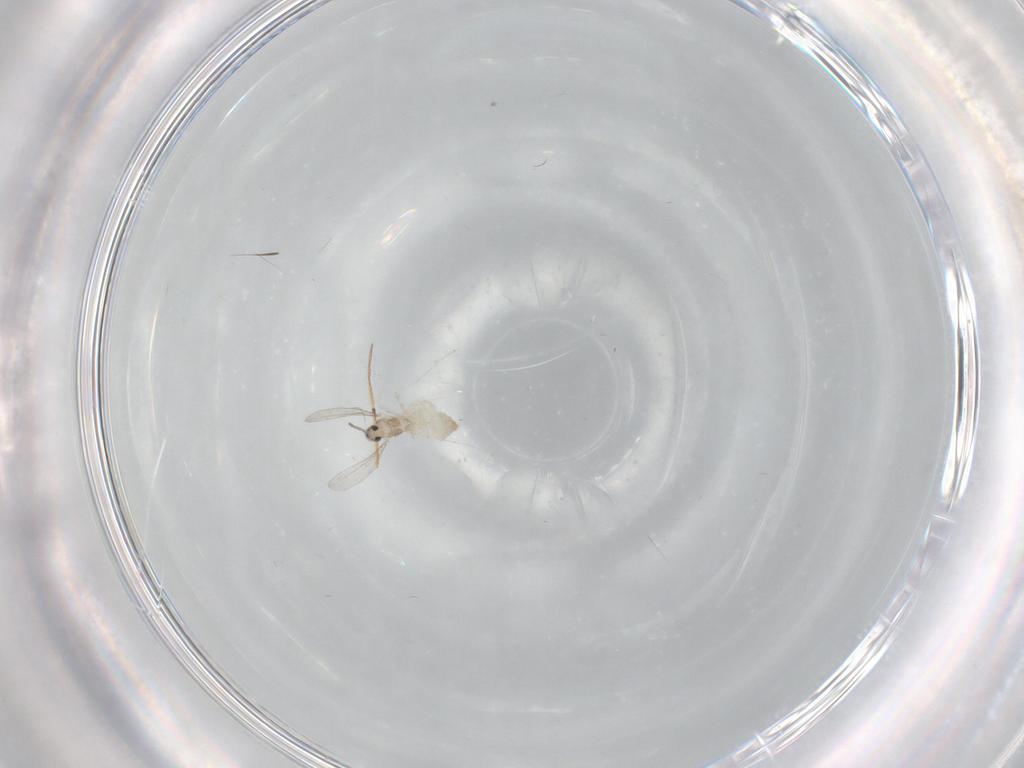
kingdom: Animalia
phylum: Arthropoda
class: Insecta
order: Diptera
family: Cecidomyiidae
